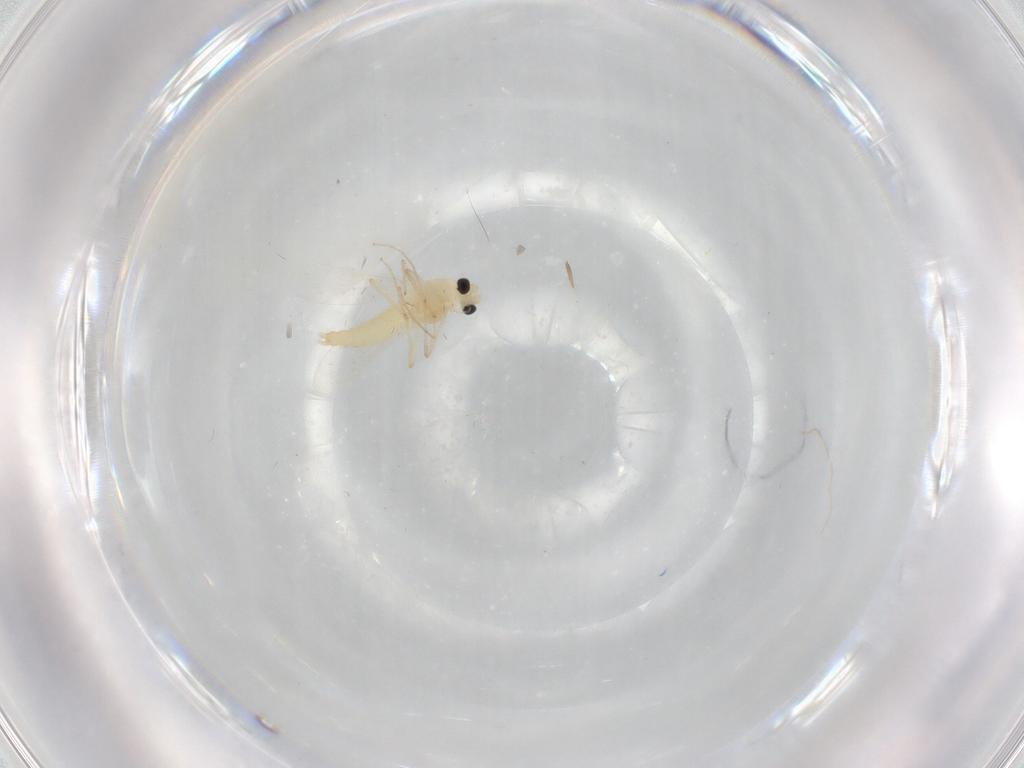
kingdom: Animalia
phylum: Arthropoda
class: Insecta
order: Diptera
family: Chironomidae
